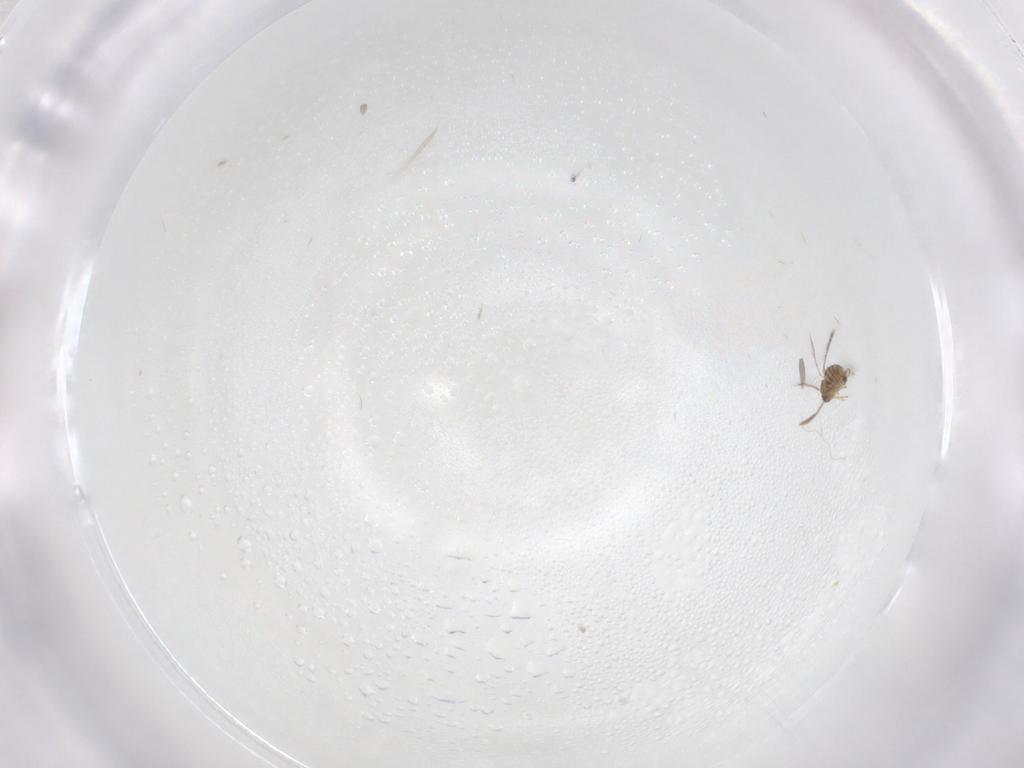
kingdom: Animalia
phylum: Arthropoda
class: Insecta
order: Hymenoptera
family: Mymaridae
